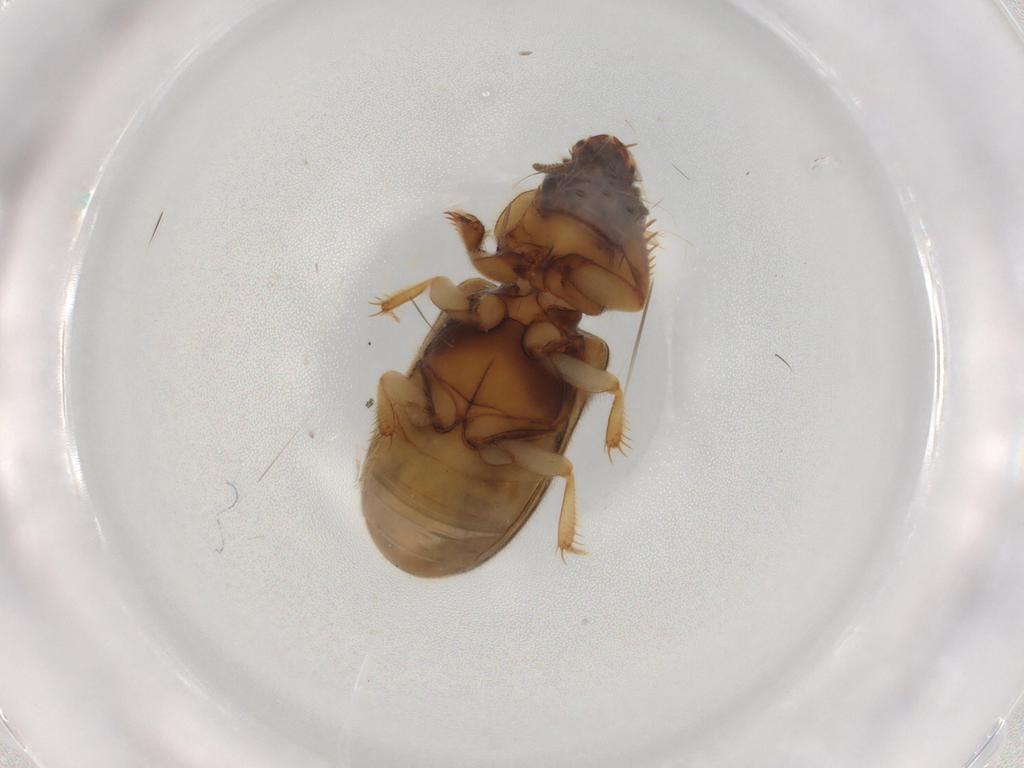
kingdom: Animalia
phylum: Arthropoda
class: Insecta
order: Coleoptera
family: Heteroceridae
